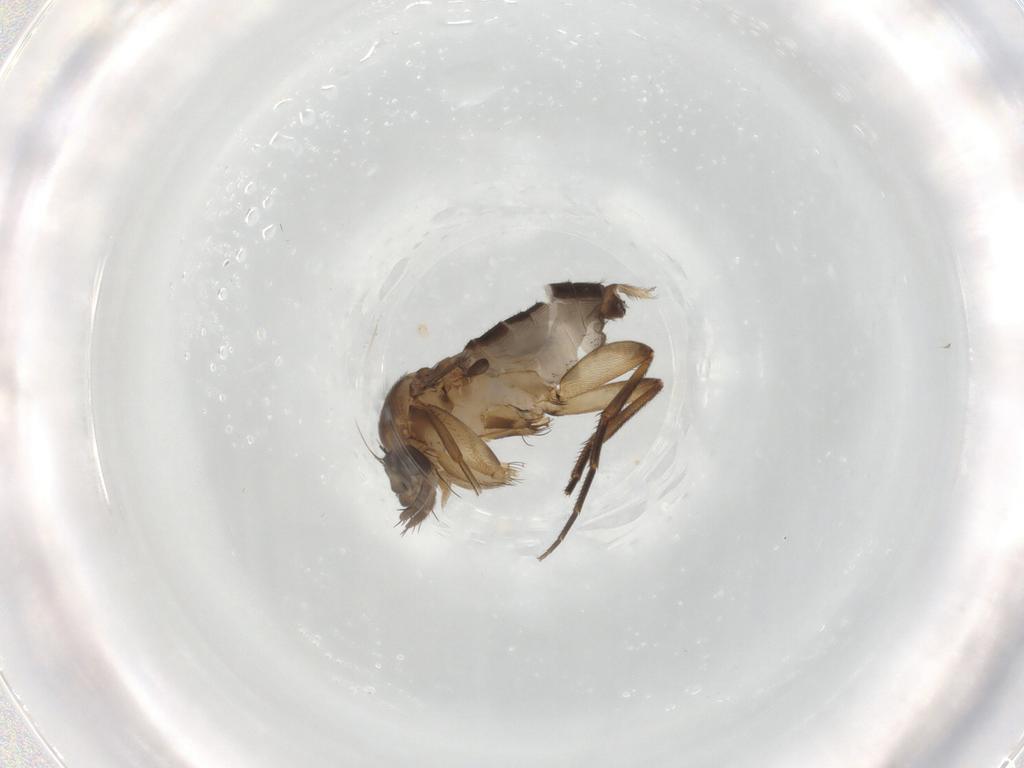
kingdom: Animalia
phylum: Arthropoda
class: Insecta
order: Diptera
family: Phoridae
